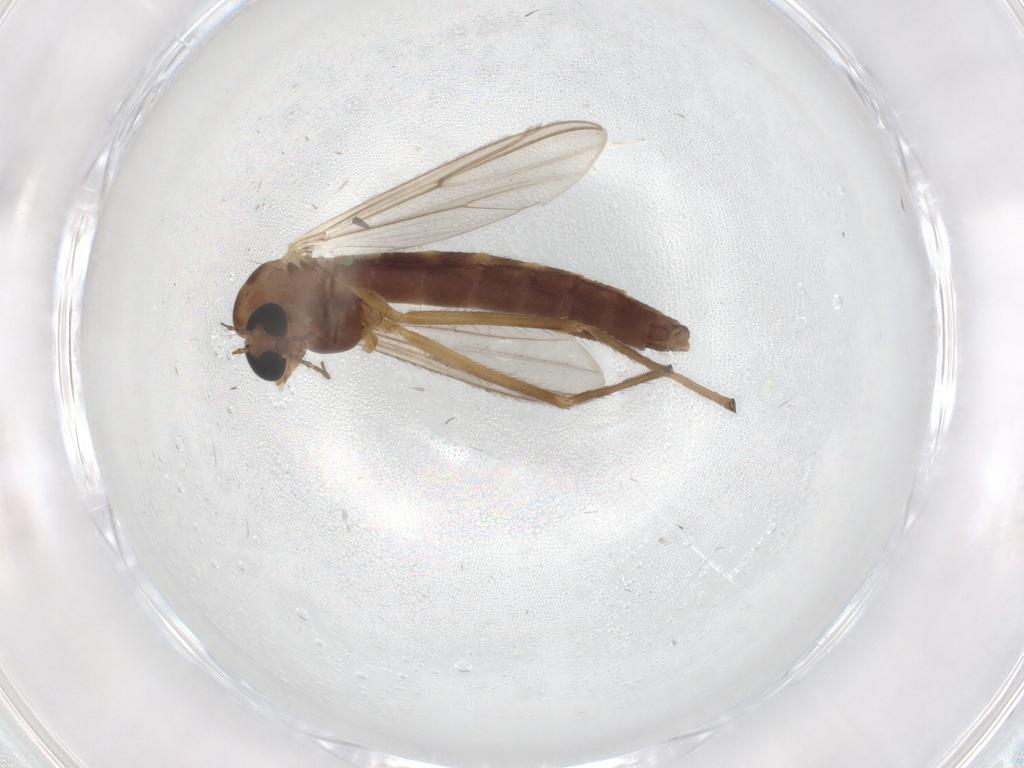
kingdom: Animalia
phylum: Arthropoda
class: Insecta
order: Diptera
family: Chironomidae
